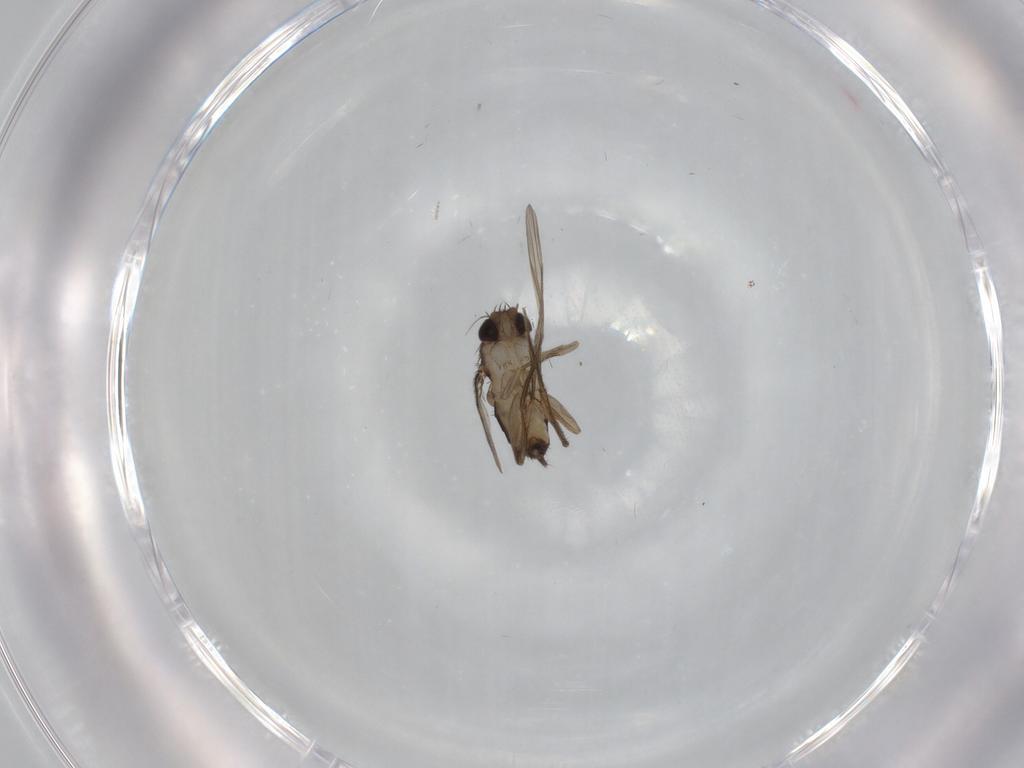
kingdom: Animalia
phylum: Arthropoda
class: Insecta
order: Diptera
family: Phoridae
